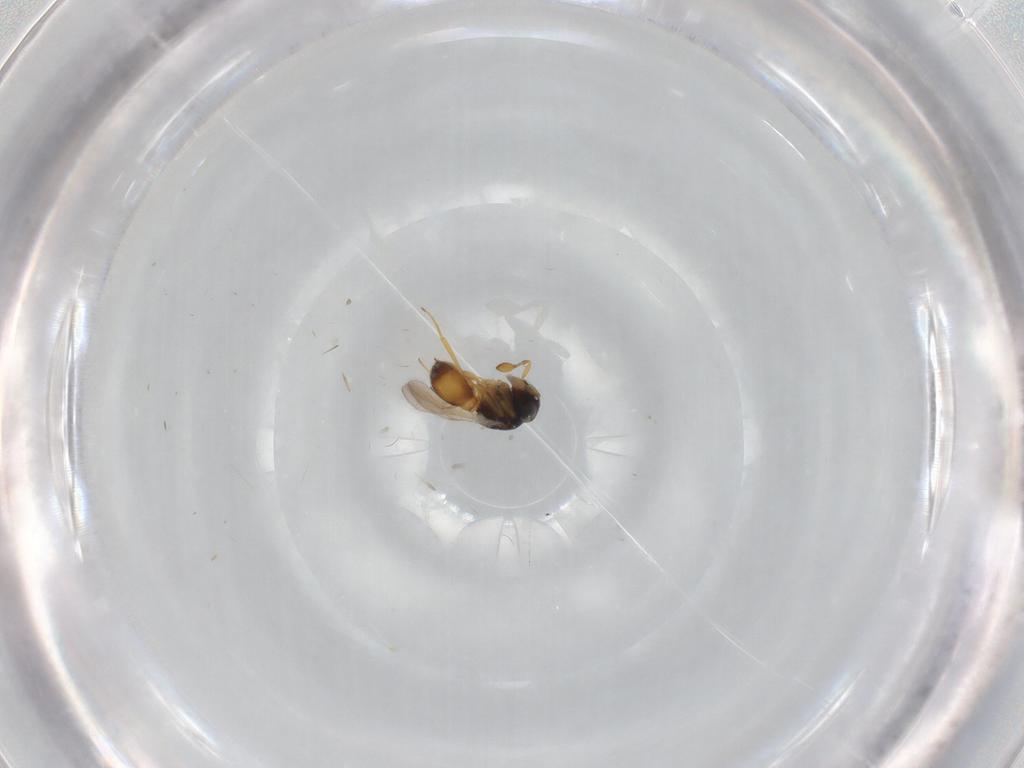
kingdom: Animalia
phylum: Arthropoda
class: Insecta
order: Hymenoptera
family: Scelionidae
